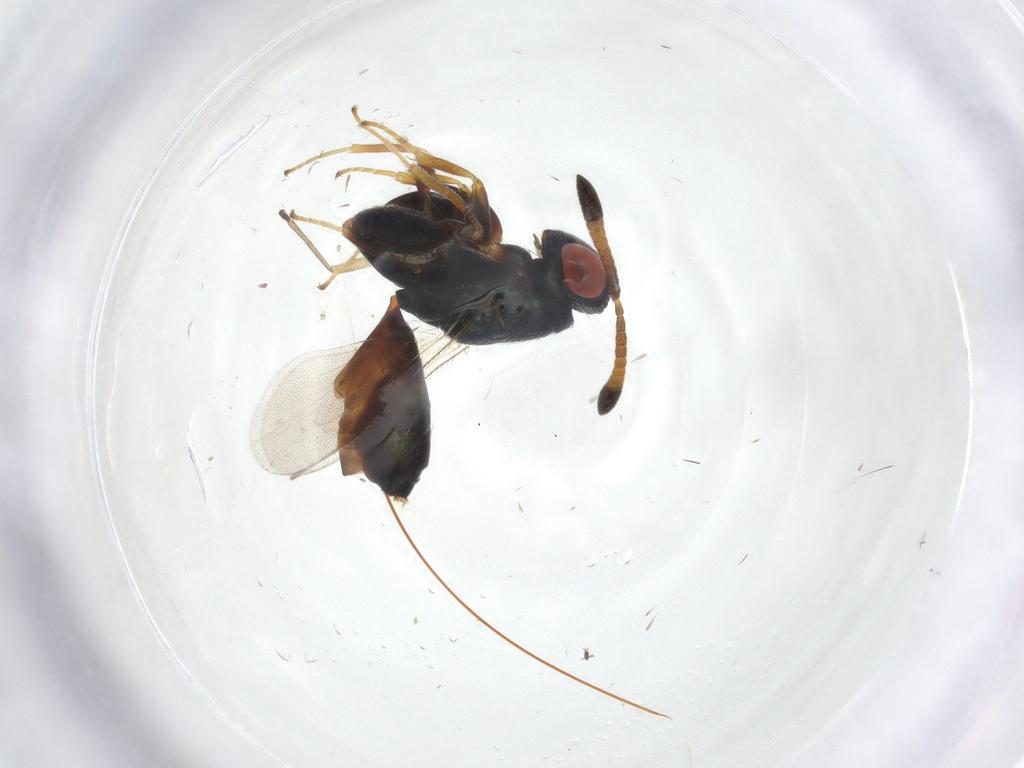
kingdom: Animalia
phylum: Arthropoda
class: Insecta
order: Hymenoptera
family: Torymidae
